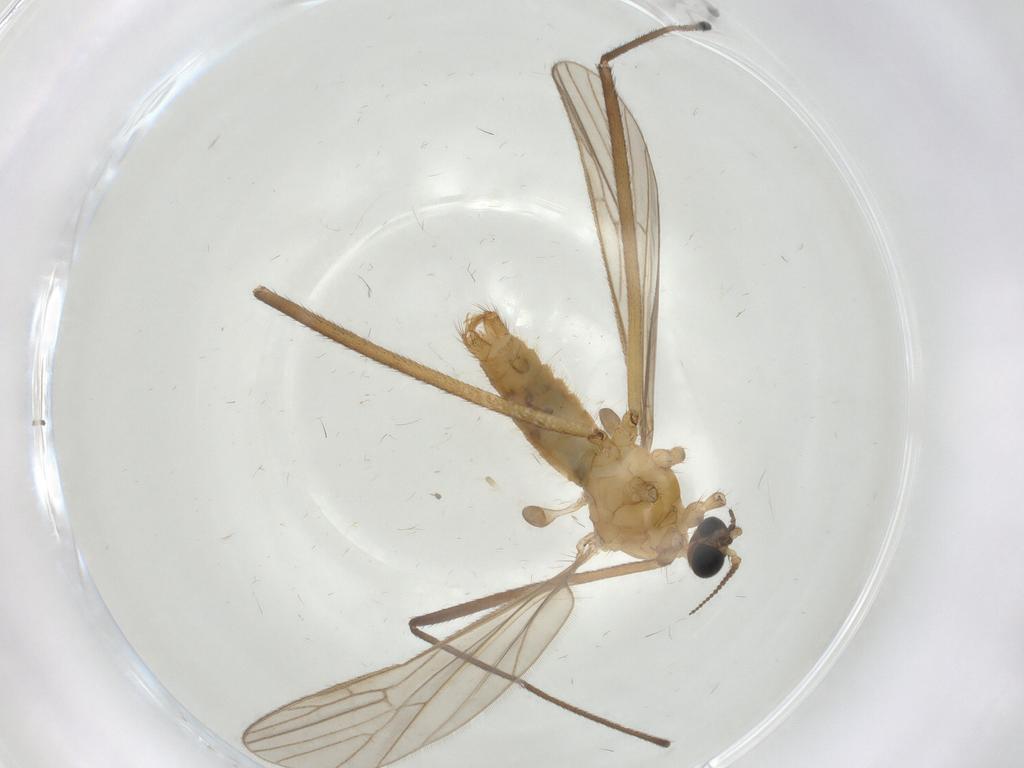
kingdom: Animalia
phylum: Arthropoda
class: Insecta
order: Diptera
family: Limoniidae
